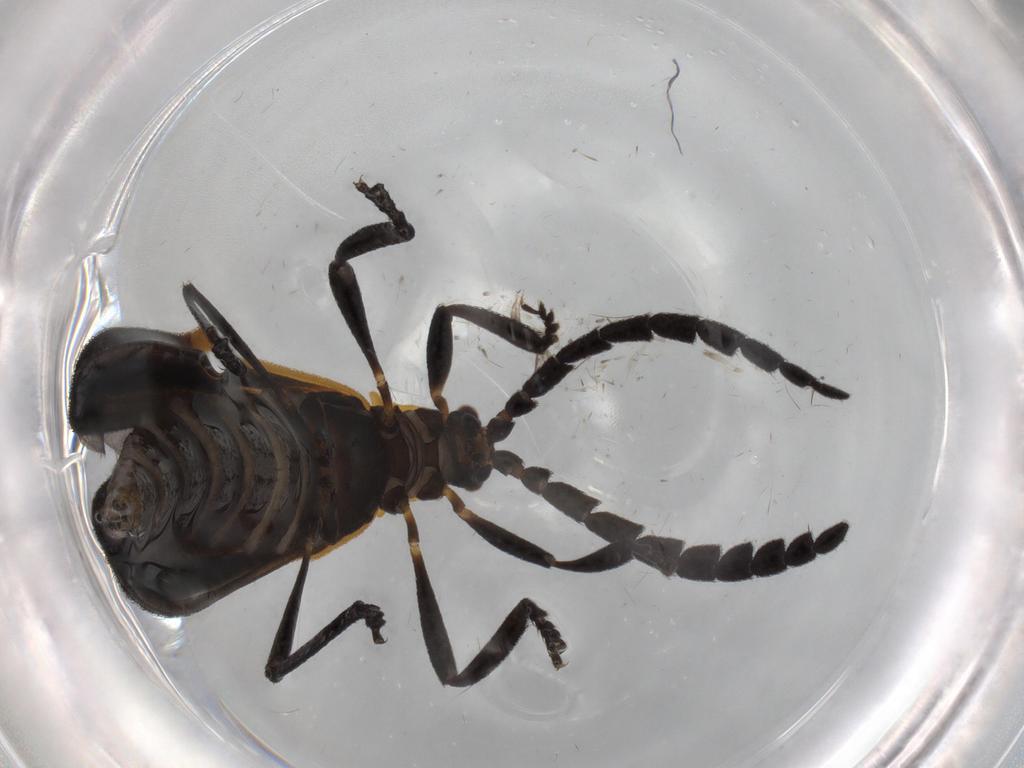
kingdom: Animalia
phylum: Arthropoda
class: Insecta
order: Coleoptera
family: Lycidae
